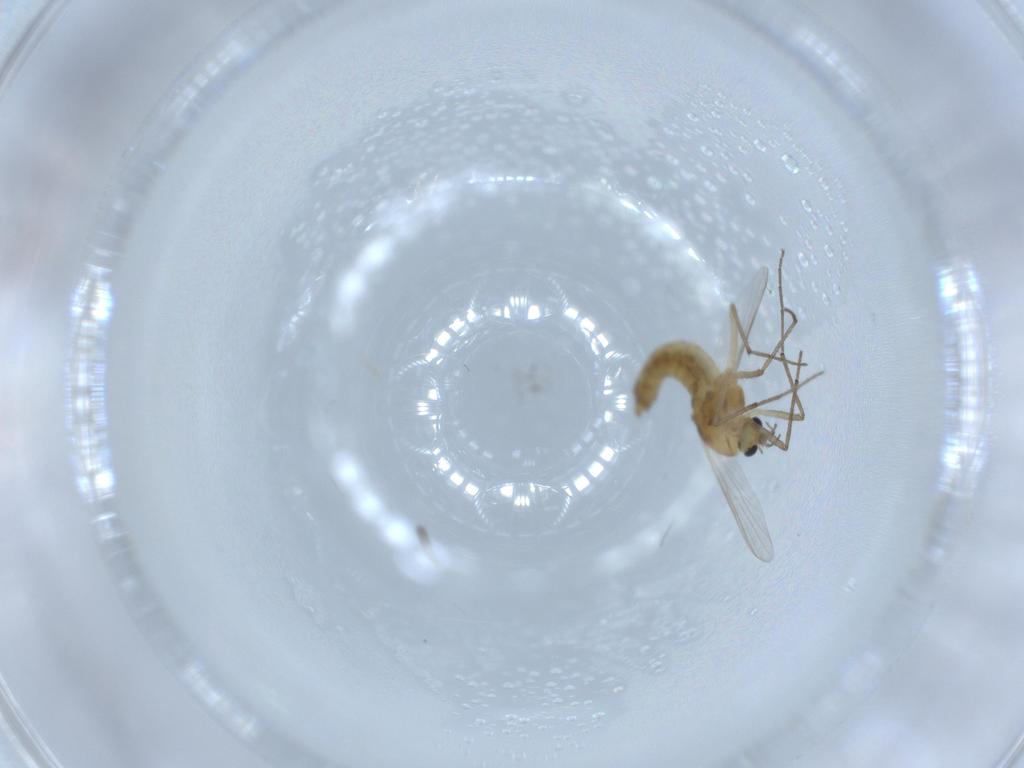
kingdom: Animalia
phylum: Arthropoda
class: Insecta
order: Diptera
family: Chironomidae
